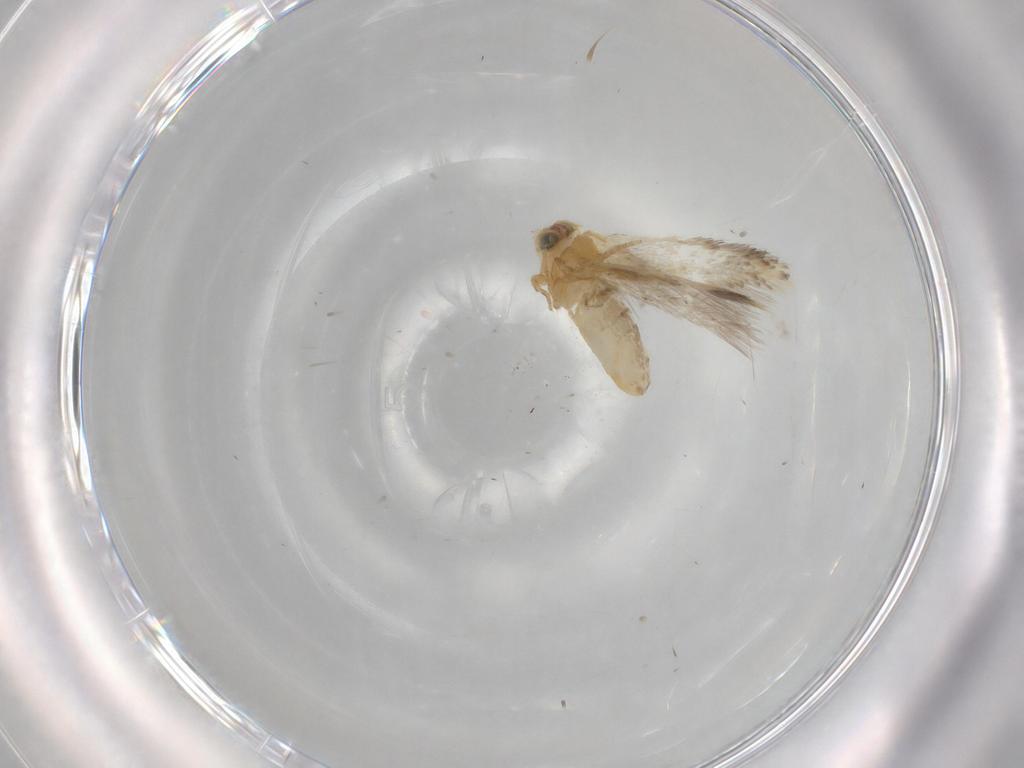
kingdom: Animalia
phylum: Arthropoda
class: Insecta
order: Lepidoptera
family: Nepticulidae
